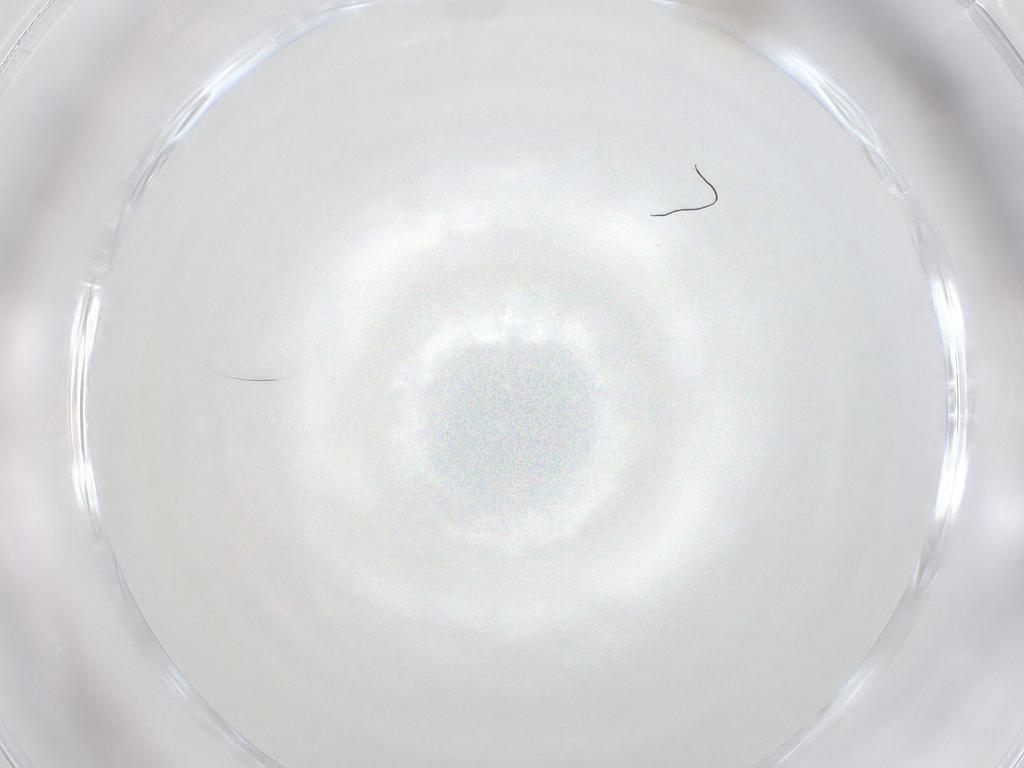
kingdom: Animalia
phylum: Arthropoda
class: Insecta
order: Diptera
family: Chironomidae
